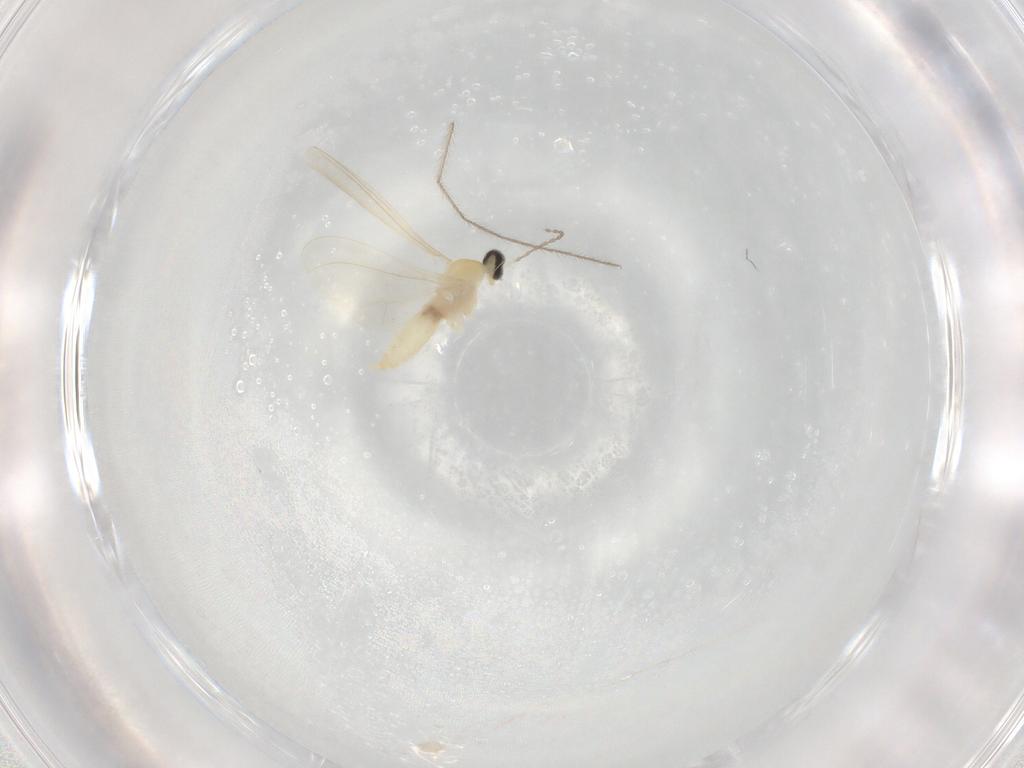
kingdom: Animalia
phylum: Arthropoda
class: Insecta
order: Diptera
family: Cecidomyiidae
